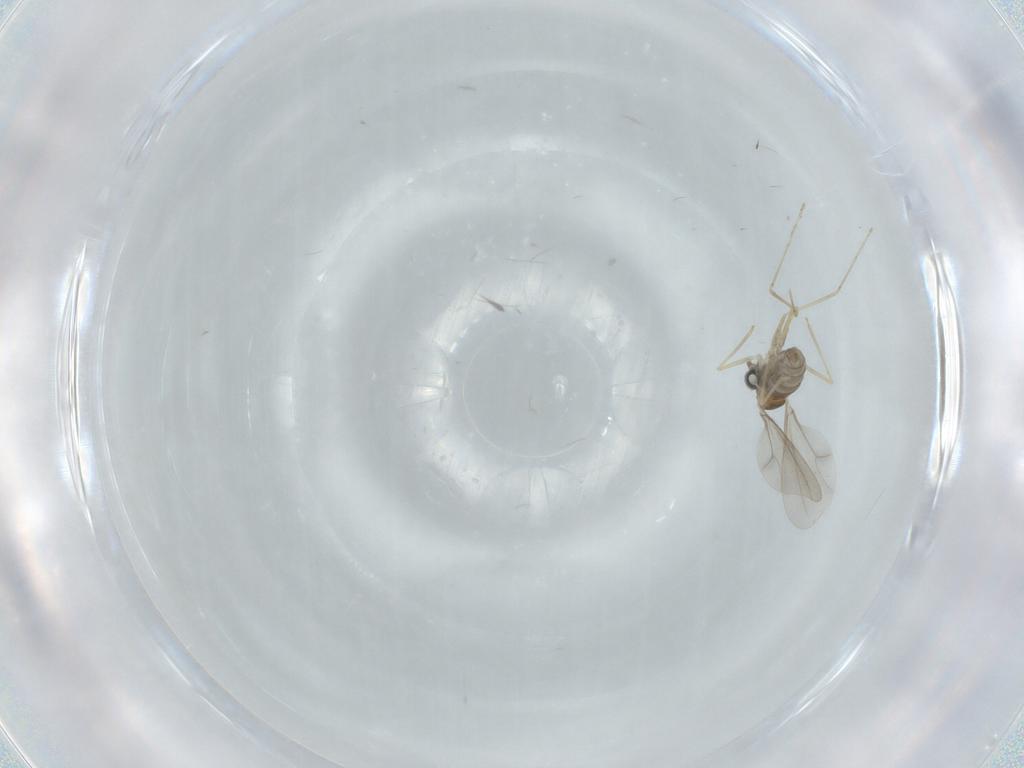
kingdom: Animalia
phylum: Arthropoda
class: Insecta
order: Diptera
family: Cecidomyiidae
